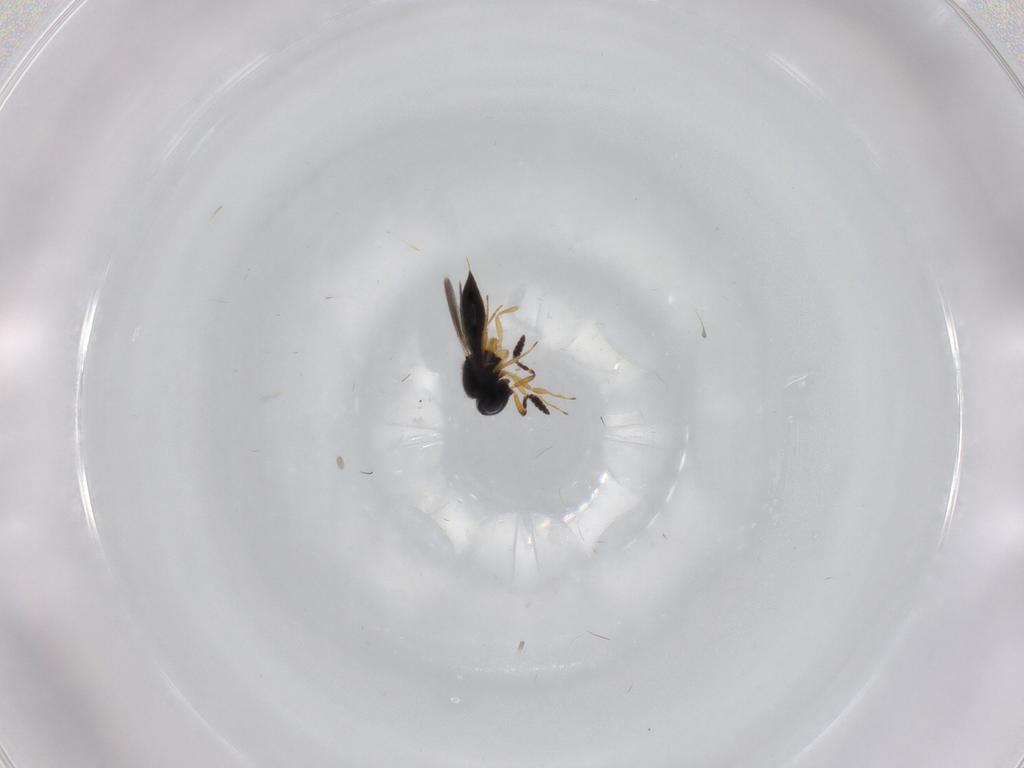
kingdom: Animalia
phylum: Arthropoda
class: Insecta
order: Hymenoptera
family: Scelionidae
